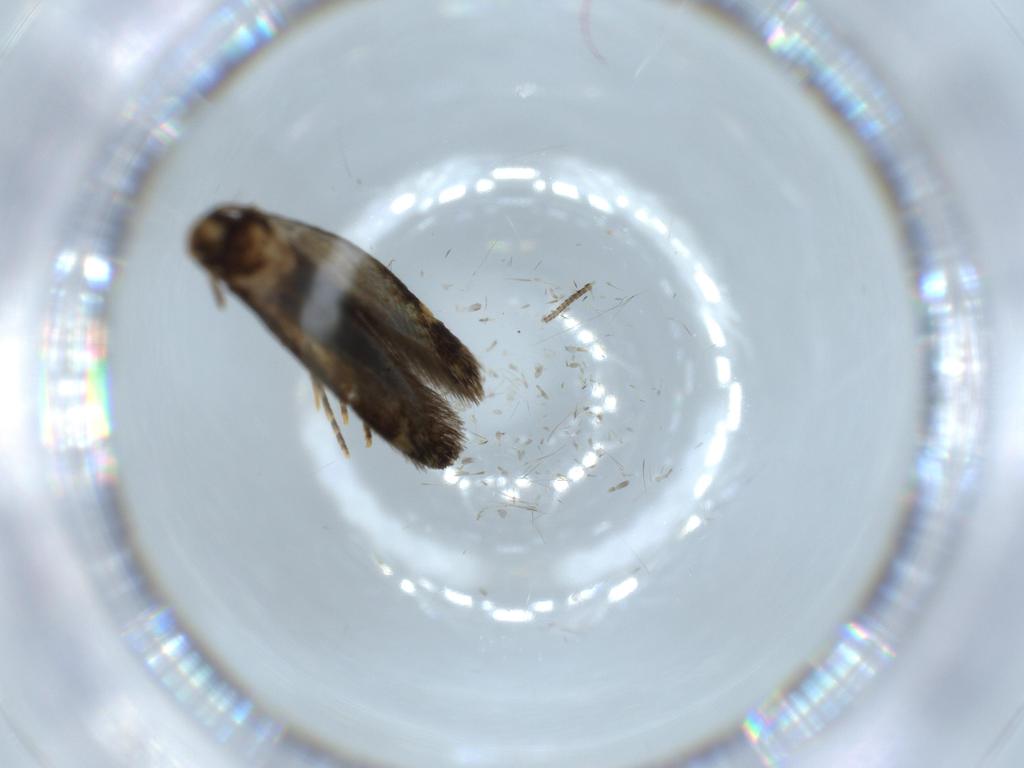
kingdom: Animalia
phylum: Arthropoda
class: Insecta
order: Lepidoptera
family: Tineidae
